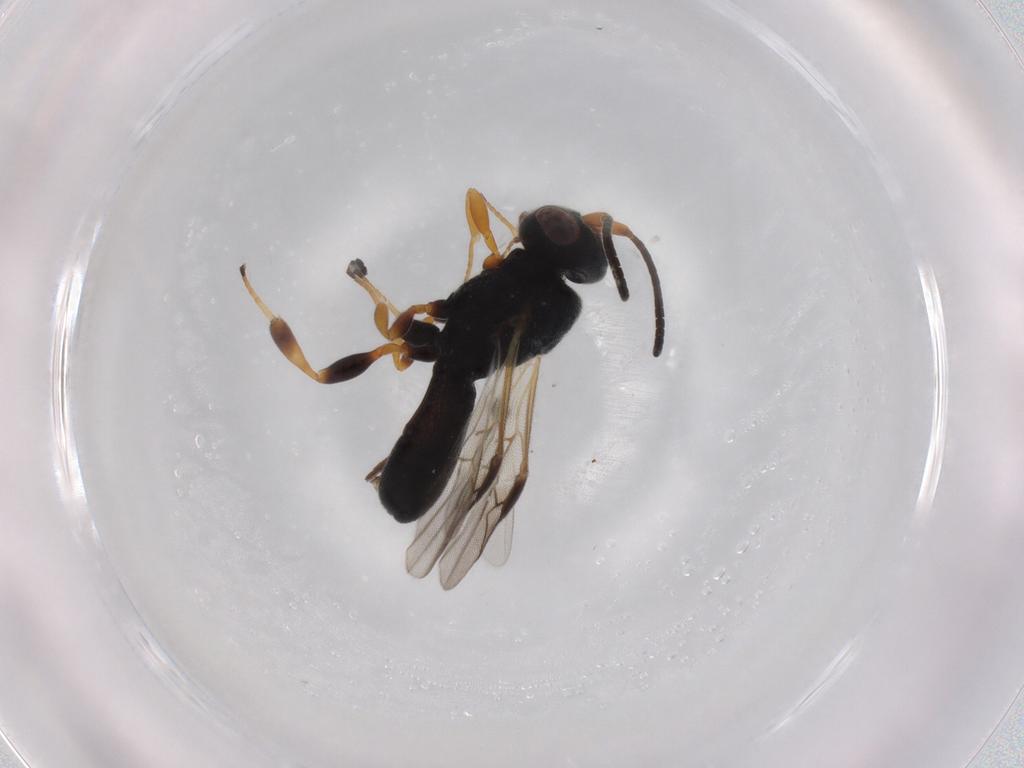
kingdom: Animalia
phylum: Arthropoda
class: Insecta
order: Hymenoptera
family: Braconidae
